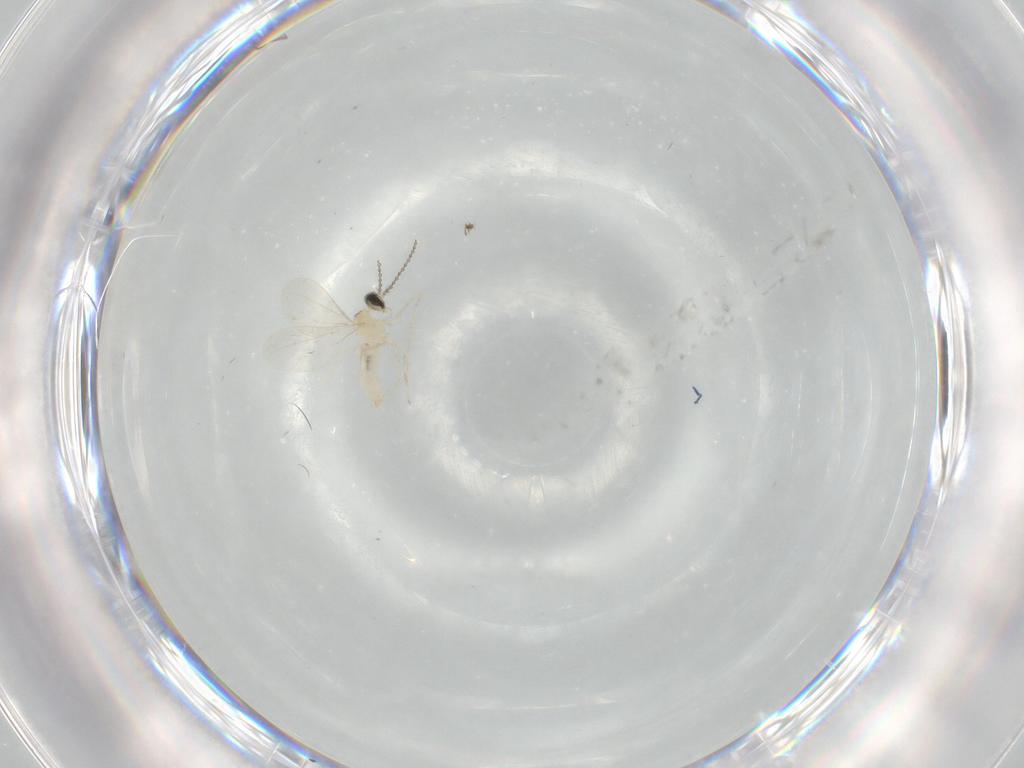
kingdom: Animalia
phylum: Arthropoda
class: Insecta
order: Diptera
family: Cecidomyiidae
